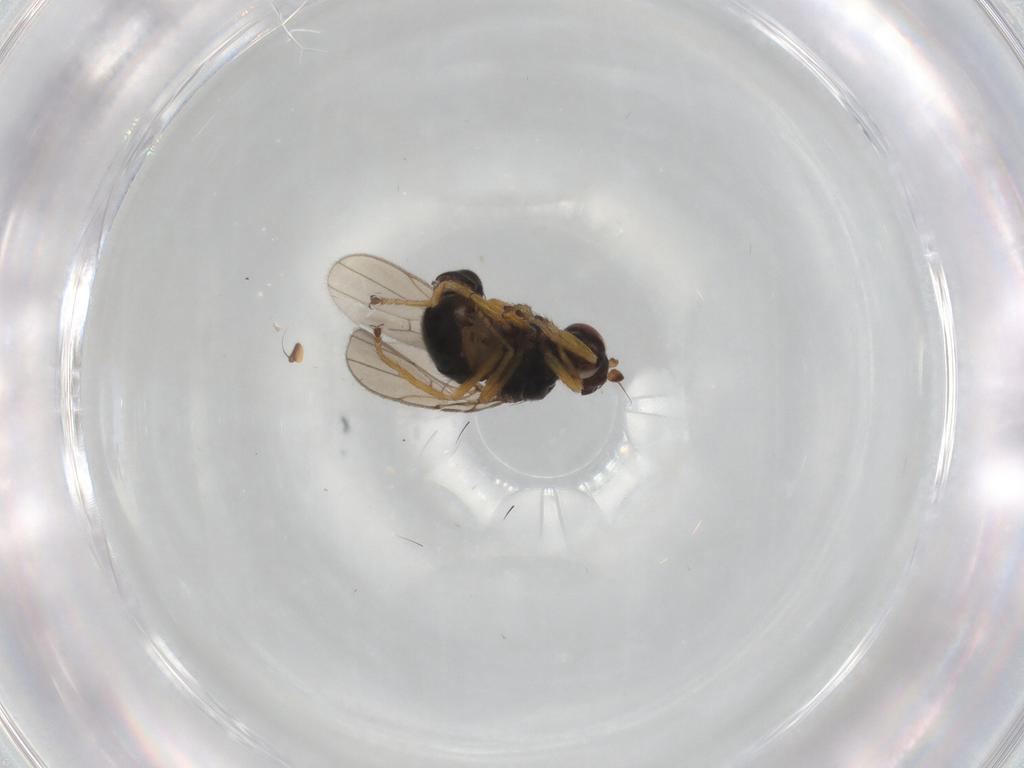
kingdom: Animalia
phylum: Arthropoda
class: Insecta
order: Diptera
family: Ephydridae
